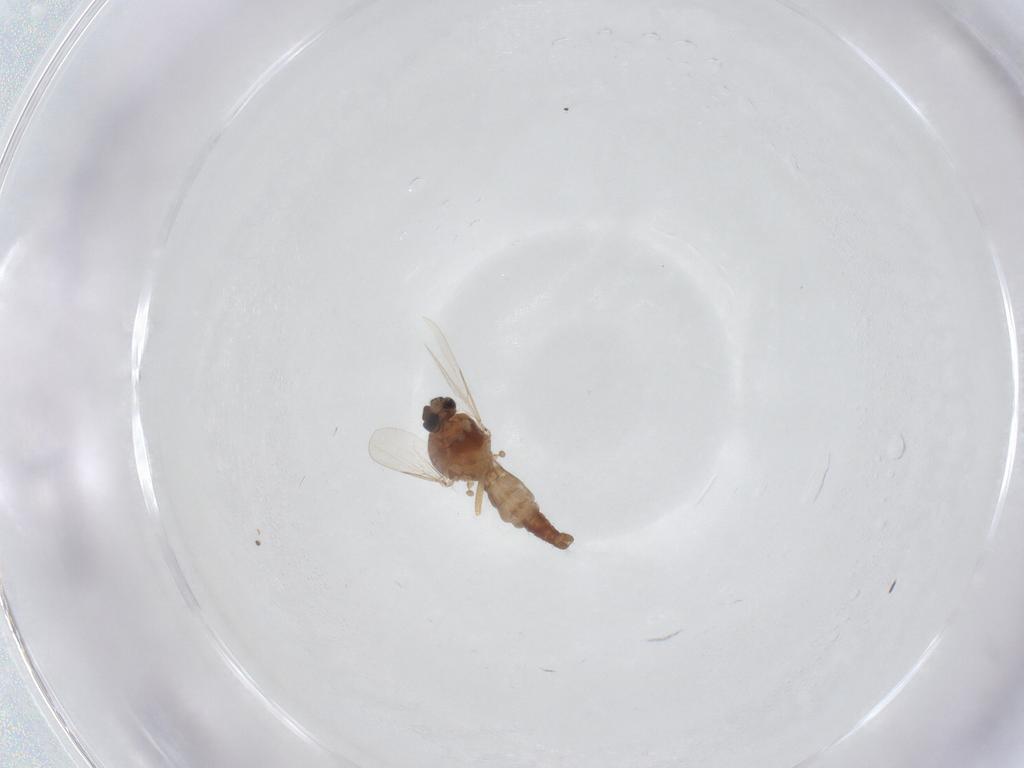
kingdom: Animalia
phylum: Arthropoda
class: Insecta
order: Diptera
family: Ceratopogonidae
